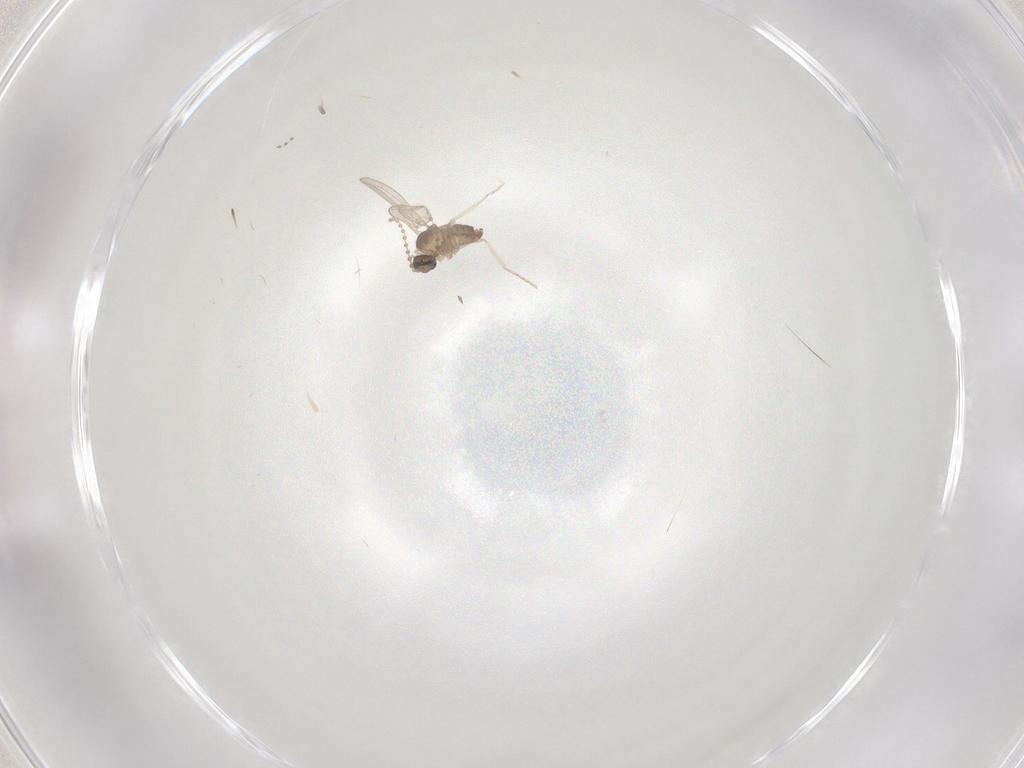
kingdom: Animalia
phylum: Arthropoda
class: Insecta
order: Diptera
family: Cecidomyiidae
